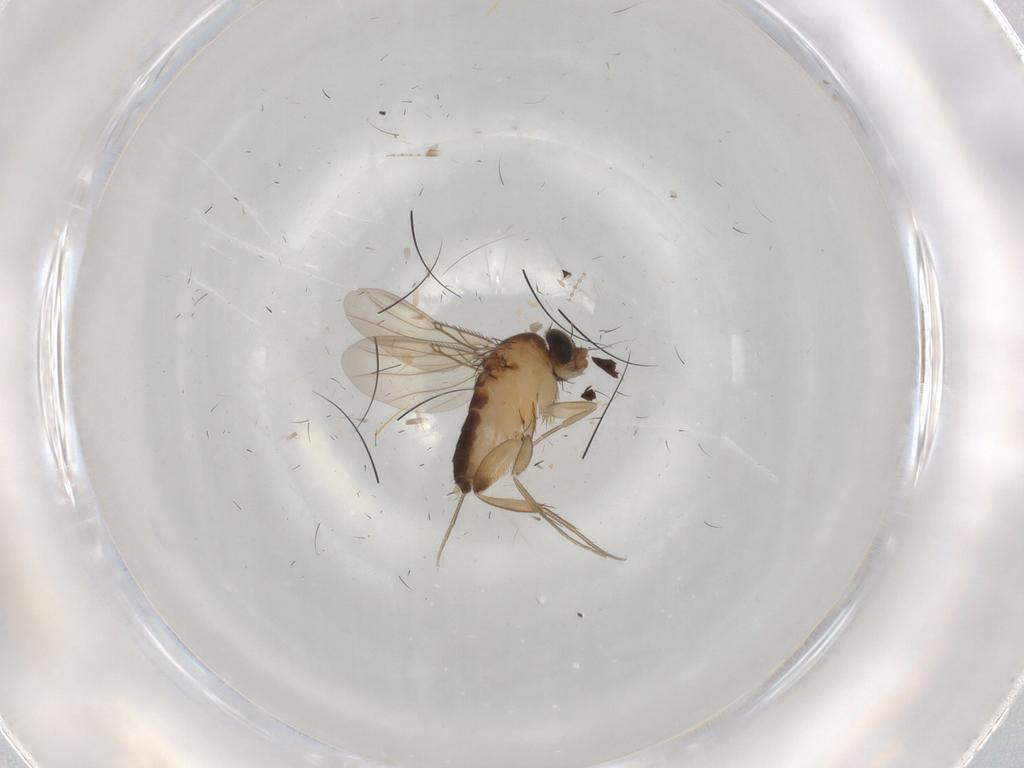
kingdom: Animalia
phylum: Arthropoda
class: Insecta
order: Diptera
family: Phoridae
